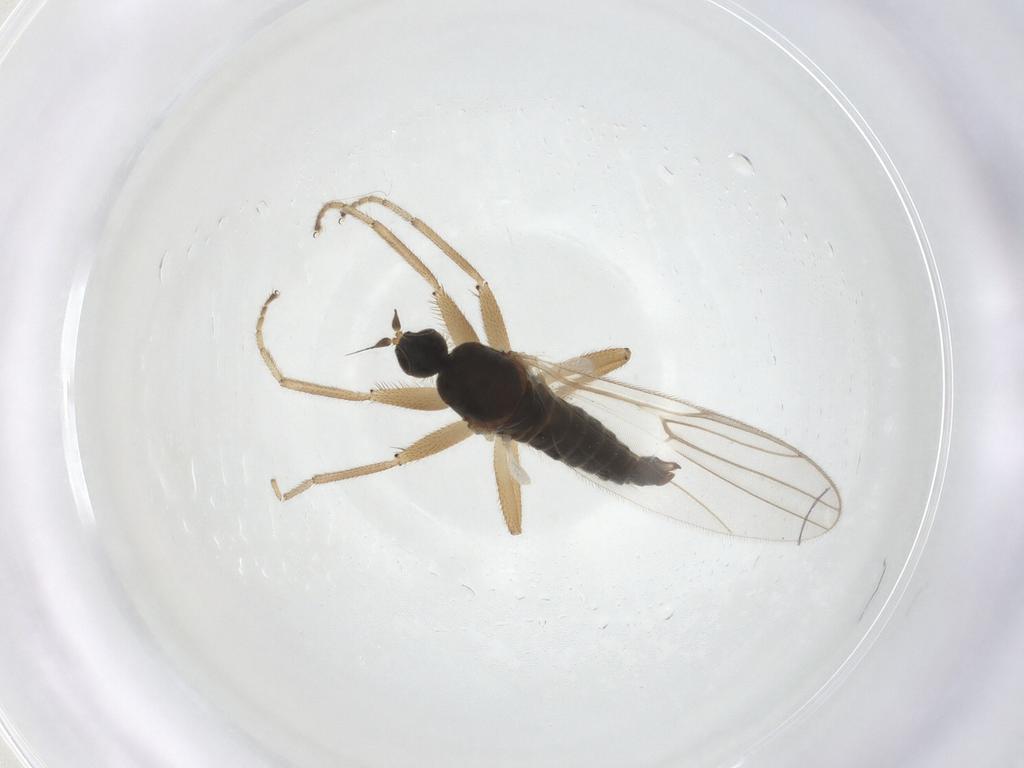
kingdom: Animalia
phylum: Arthropoda
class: Insecta
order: Diptera
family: Hybotidae
